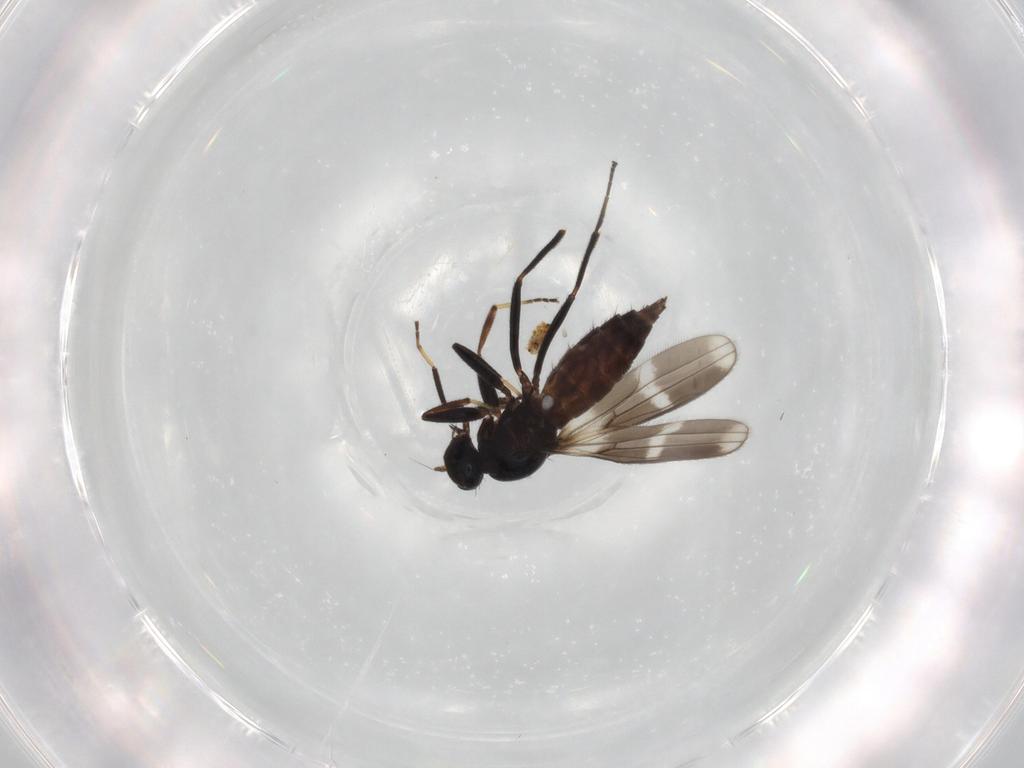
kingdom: Animalia
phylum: Arthropoda
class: Insecta
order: Diptera
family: Hybotidae
